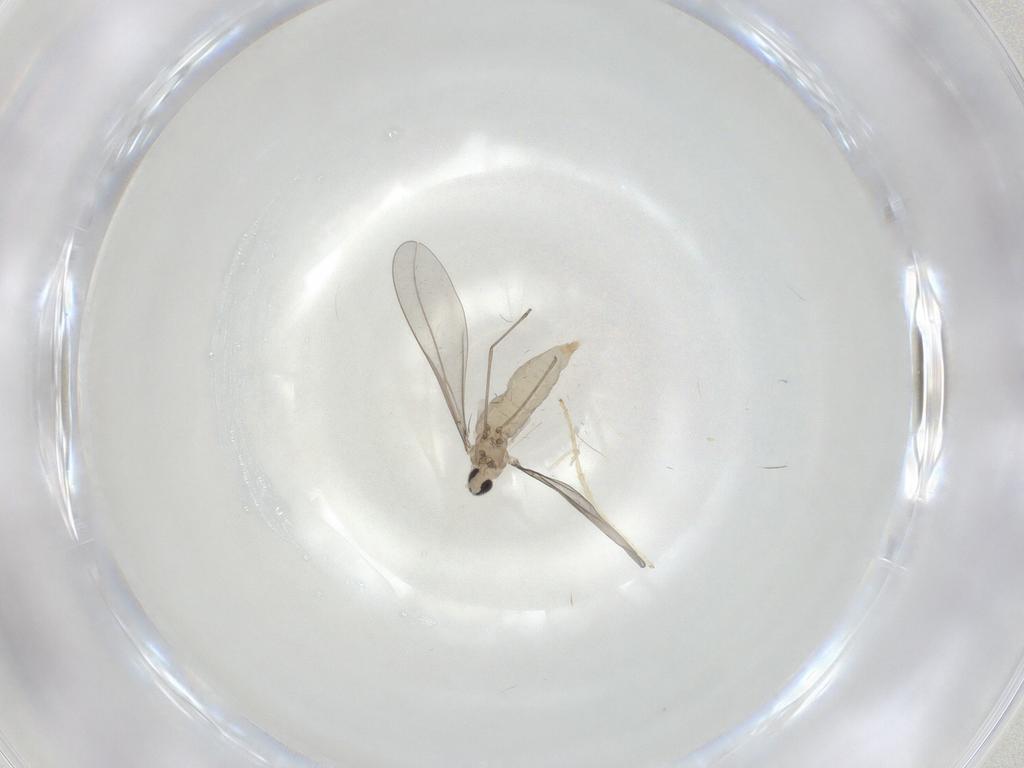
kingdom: Animalia
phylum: Arthropoda
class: Insecta
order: Diptera
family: Cecidomyiidae
